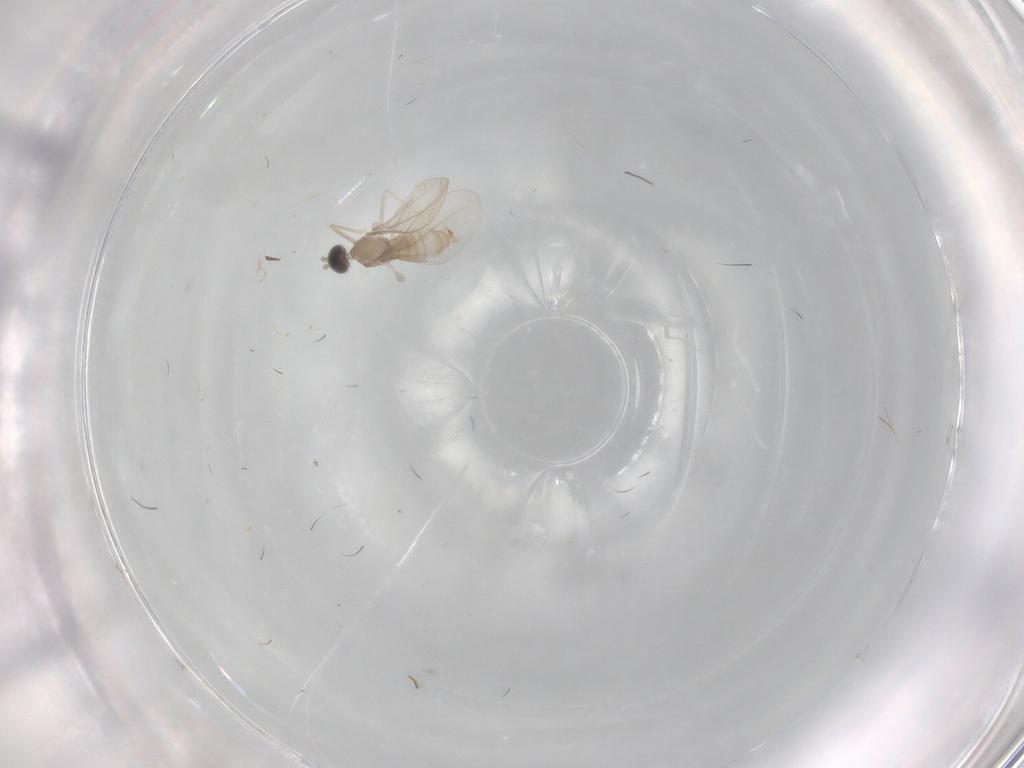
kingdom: Animalia
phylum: Arthropoda
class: Insecta
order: Diptera
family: Cecidomyiidae
